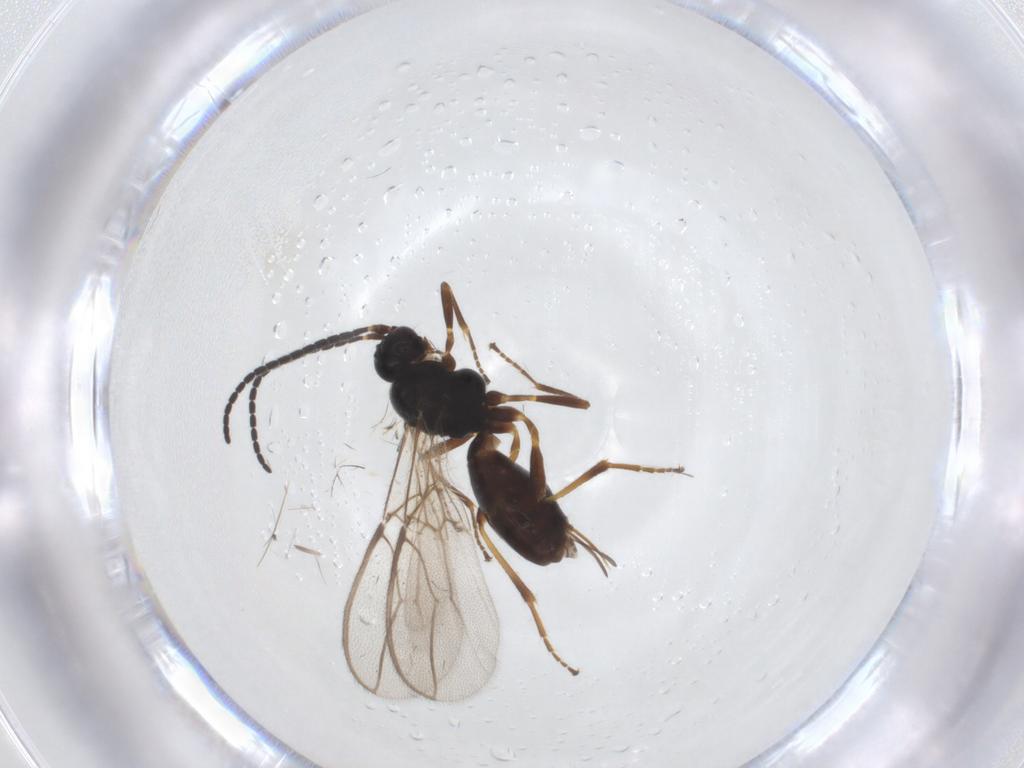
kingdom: Animalia
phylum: Arthropoda
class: Insecta
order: Hymenoptera
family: Braconidae
